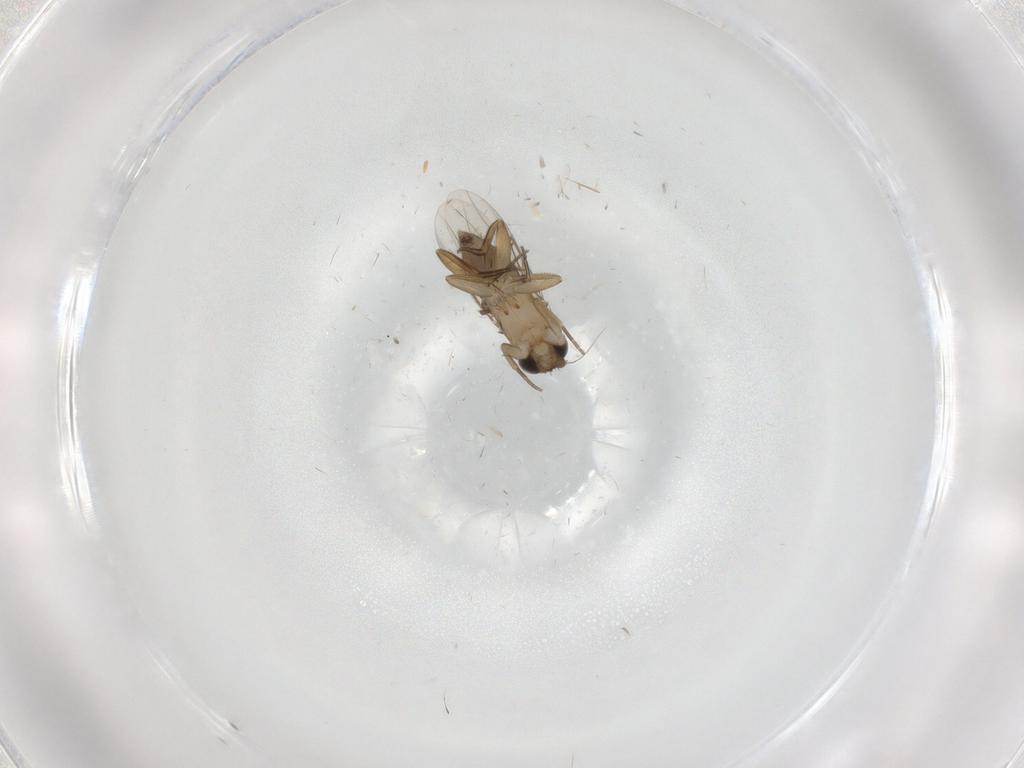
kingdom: Animalia
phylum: Arthropoda
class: Insecta
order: Diptera
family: Phoridae
